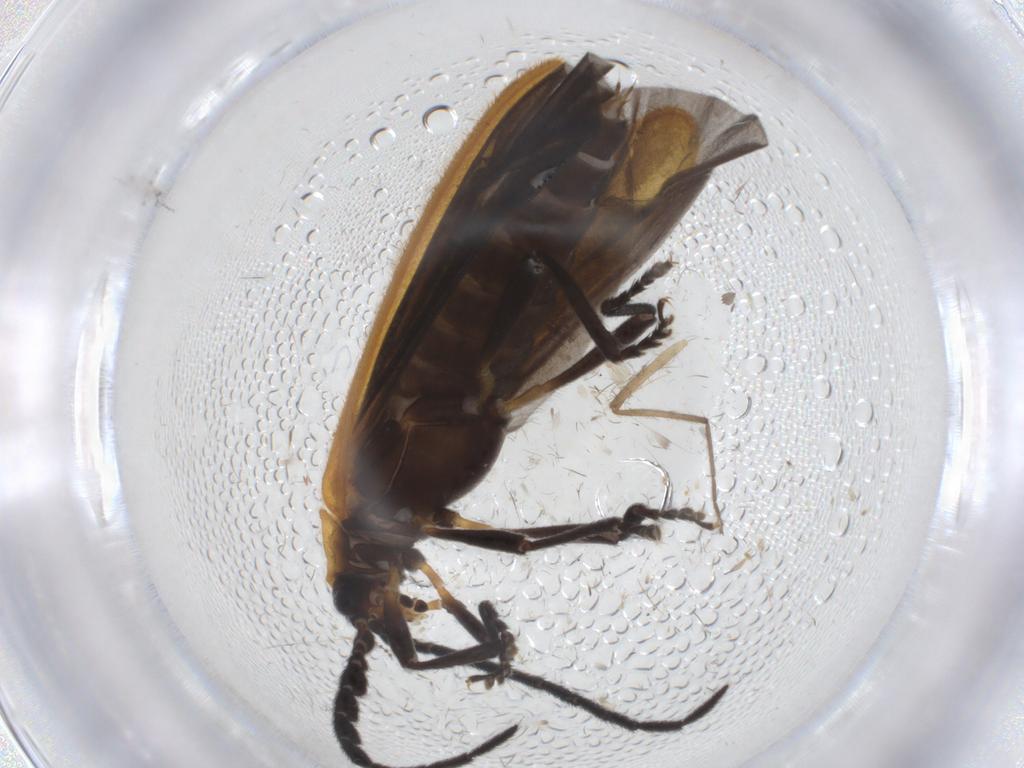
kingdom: Animalia
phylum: Arthropoda
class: Insecta
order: Coleoptera
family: Lycidae
